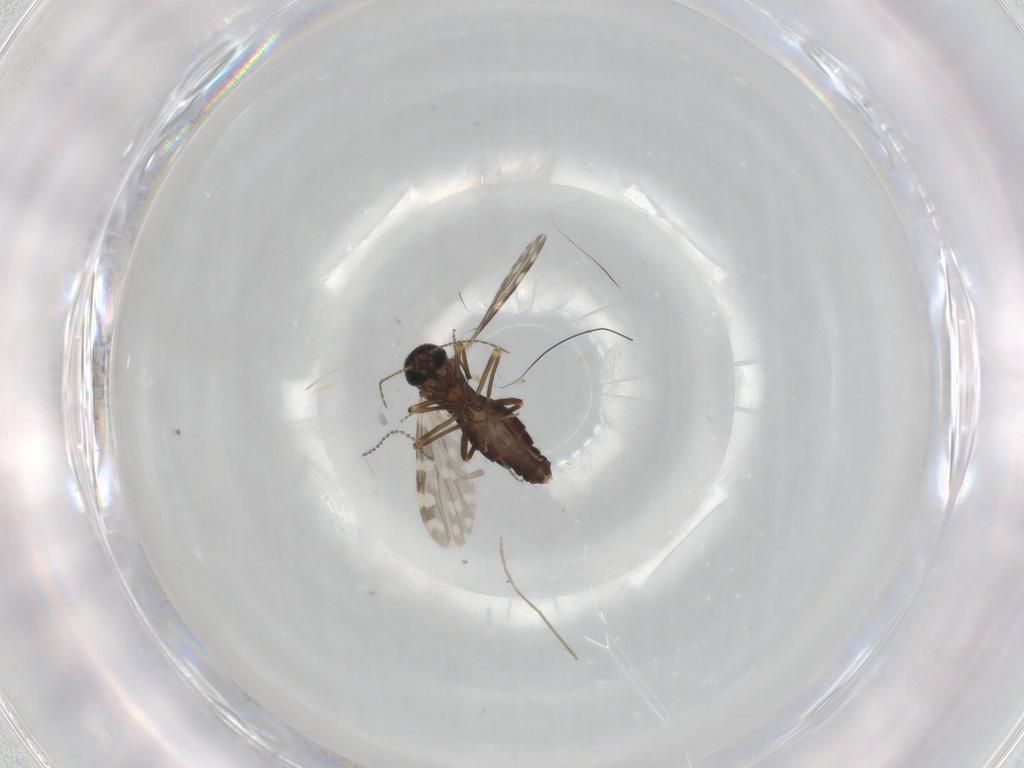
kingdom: Animalia
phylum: Arthropoda
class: Insecta
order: Diptera
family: Ceratopogonidae
